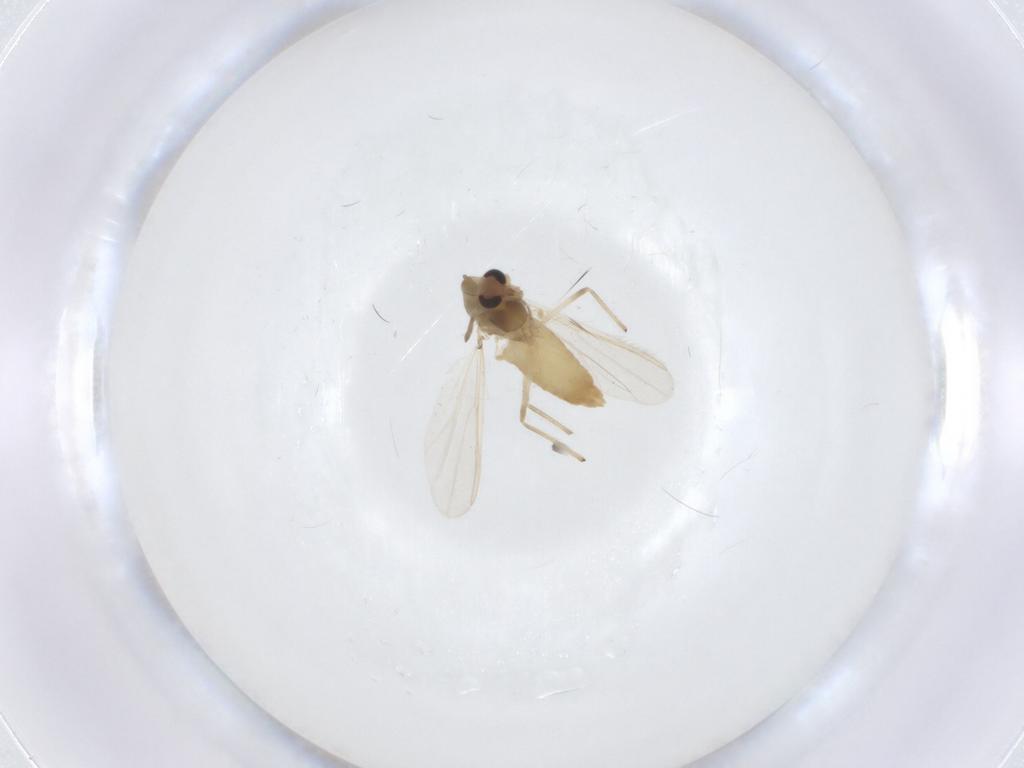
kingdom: Animalia
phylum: Arthropoda
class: Insecta
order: Diptera
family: Chironomidae
